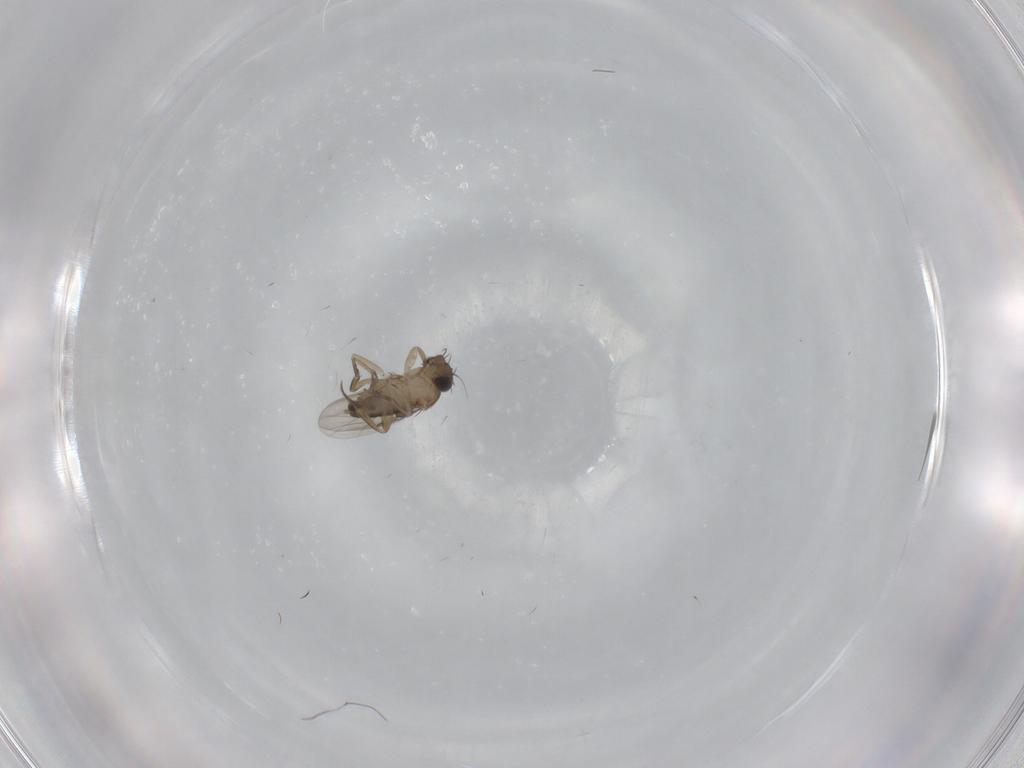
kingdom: Animalia
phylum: Arthropoda
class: Insecta
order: Diptera
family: Phoridae
